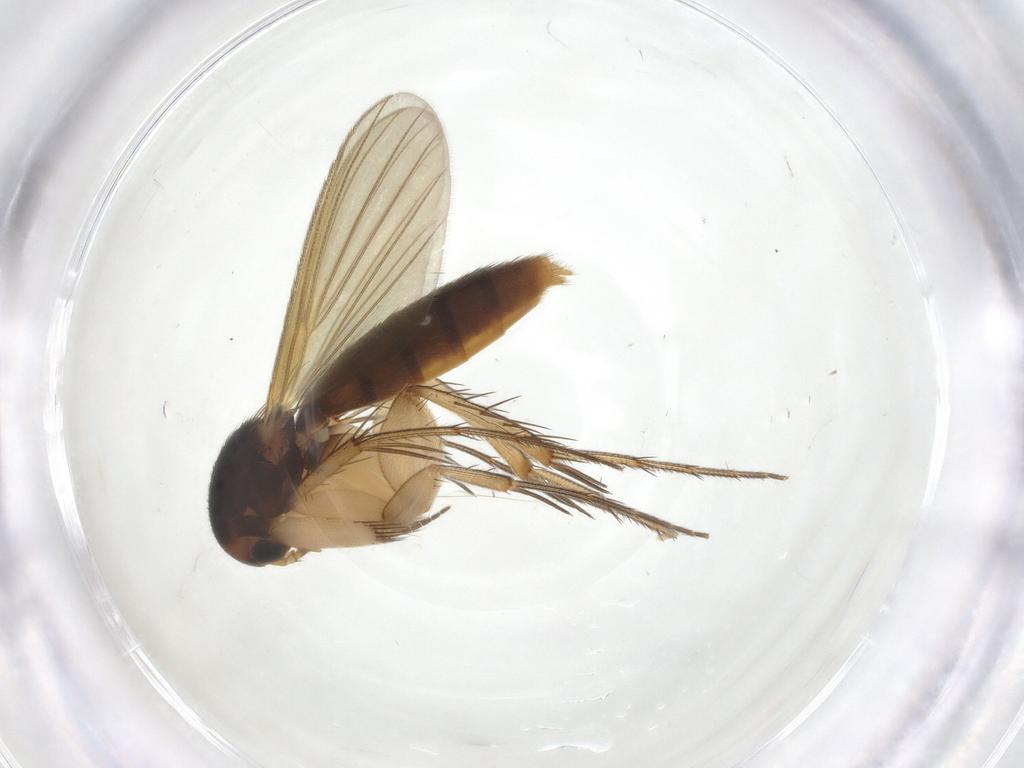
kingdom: Animalia
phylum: Arthropoda
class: Insecta
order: Diptera
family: Mycetophilidae
